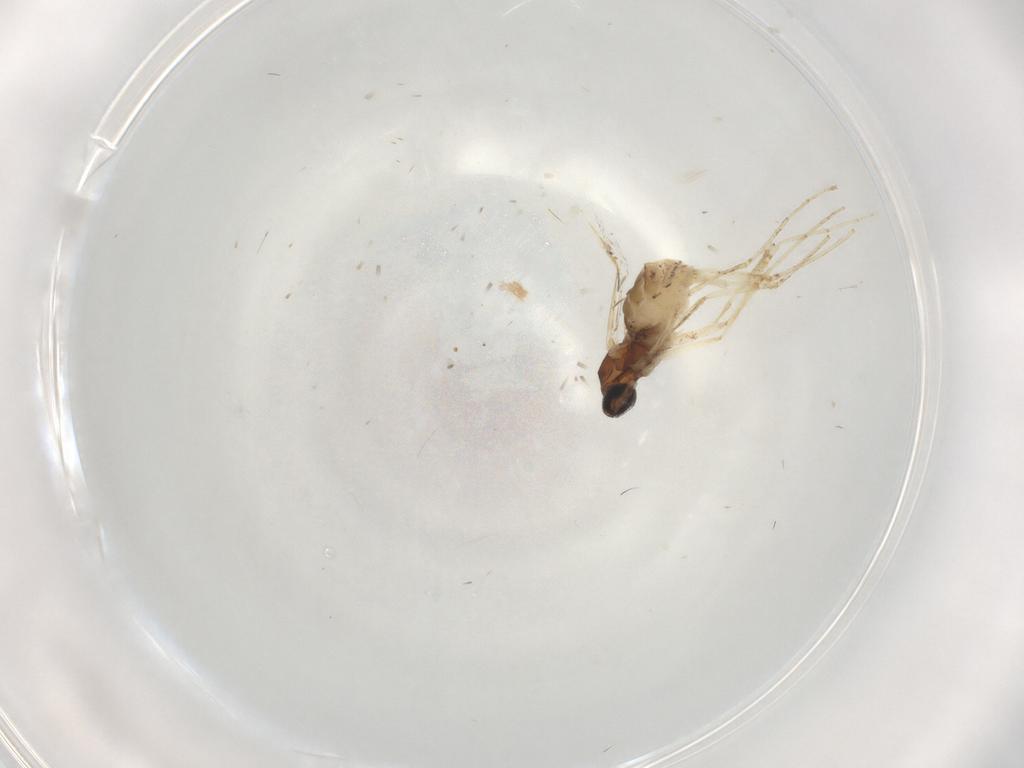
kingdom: Animalia
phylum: Arthropoda
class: Insecta
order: Diptera
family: Cecidomyiidae
